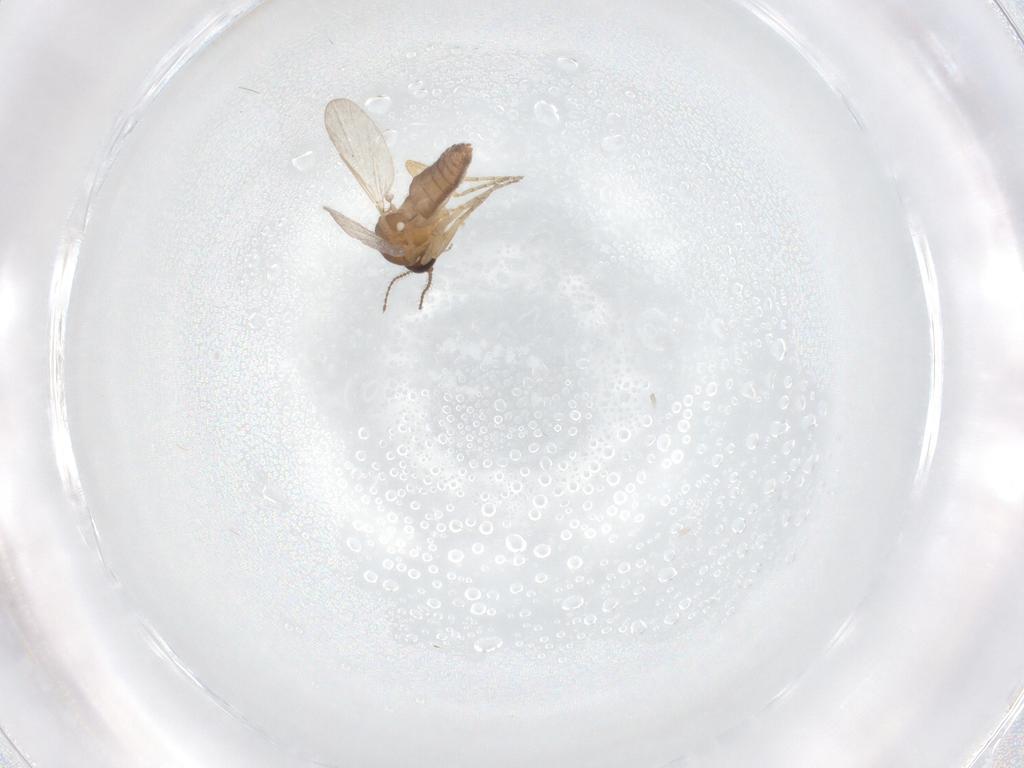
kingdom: Animalia
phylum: Arthropoda
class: Insecta
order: Diptera
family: Ceratopogonidae
